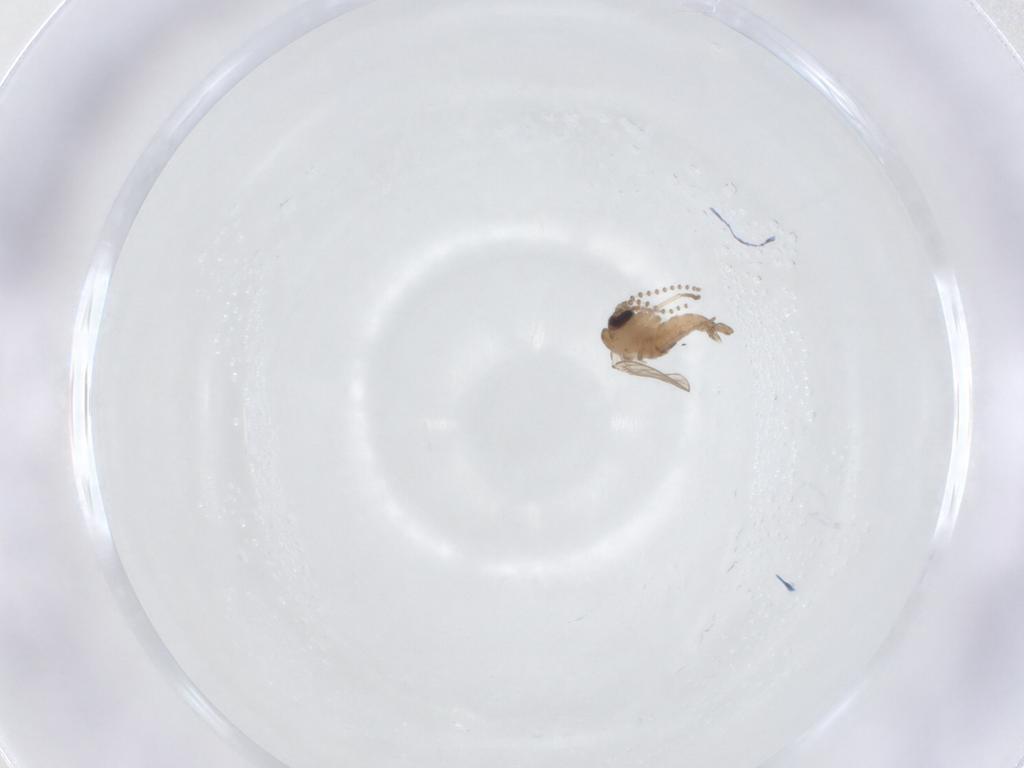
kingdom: Animalia
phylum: Arthropoda
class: Insecta
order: Diptera
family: Psychodidae
